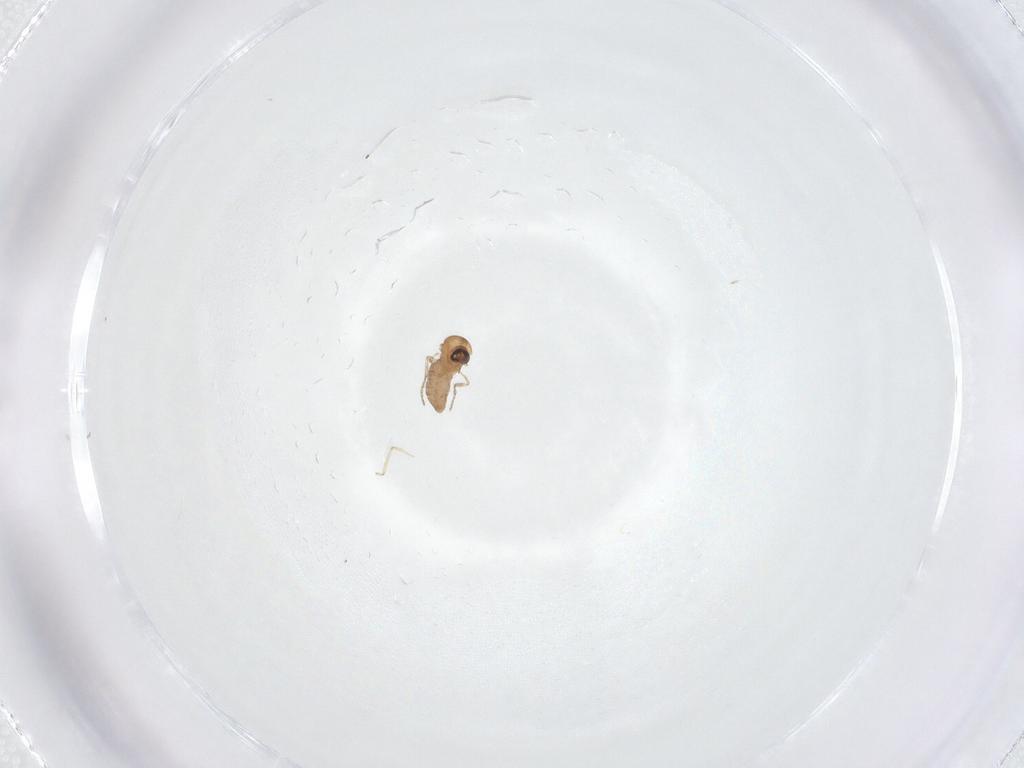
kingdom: Animalia
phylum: Arthropoda
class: Insecta
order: Diptera
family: Ceratopogonidae
